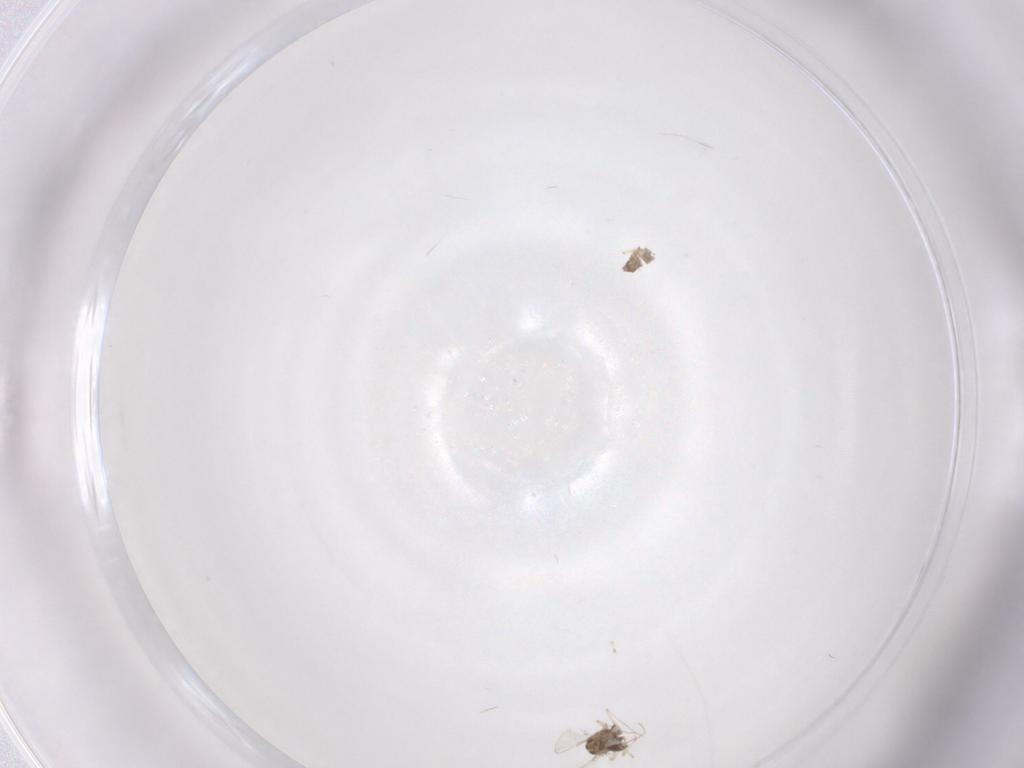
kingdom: Animalia
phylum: Arthropoda
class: Insecta
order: Diptera
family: Chironomidae
